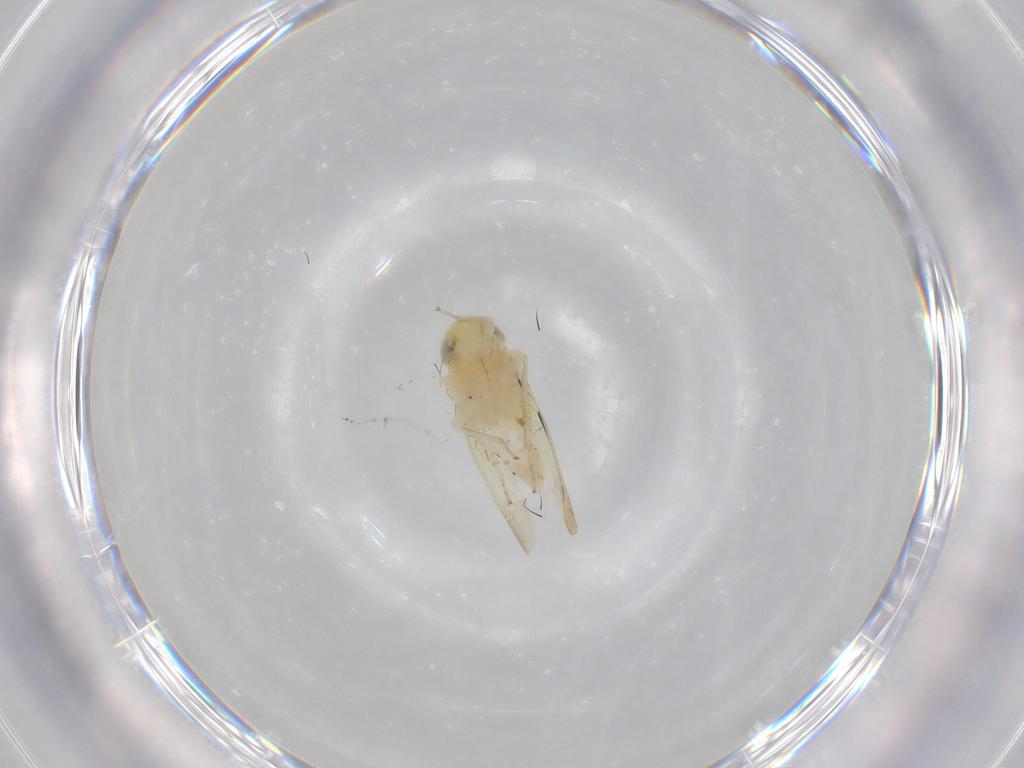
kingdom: Animalia
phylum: Arthropoda
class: Insecta
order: Hemiptera
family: Cicadellidae
